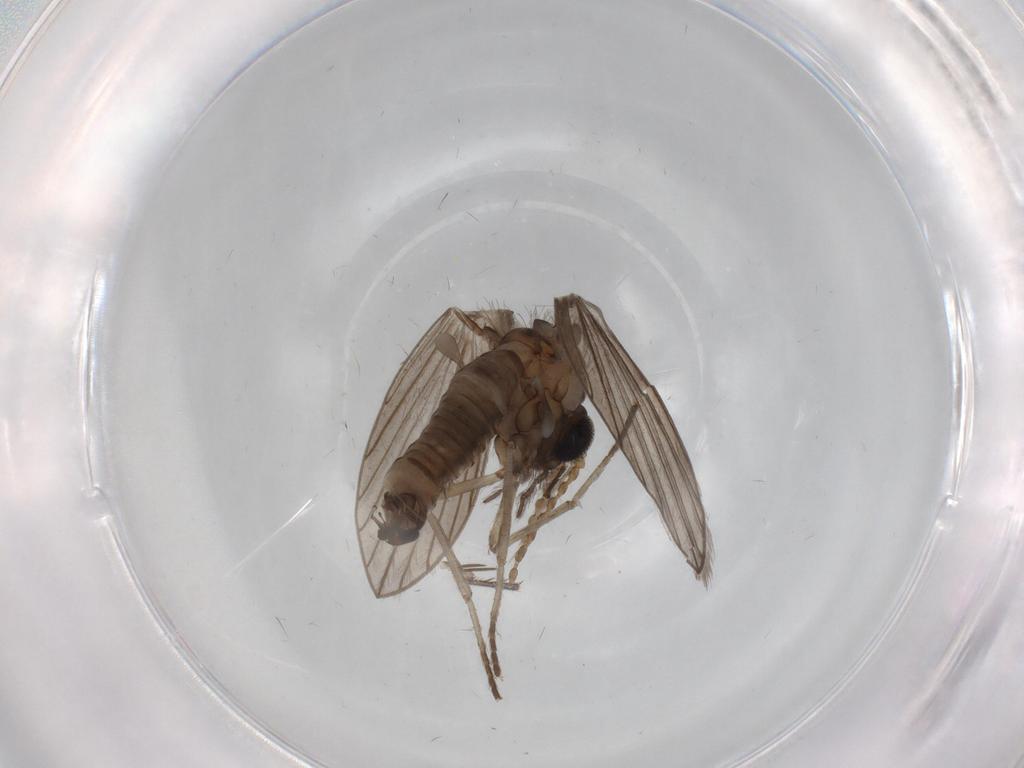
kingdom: Animalia
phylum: Arthropoda
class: Insecta
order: Diptera
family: Psychodidae
